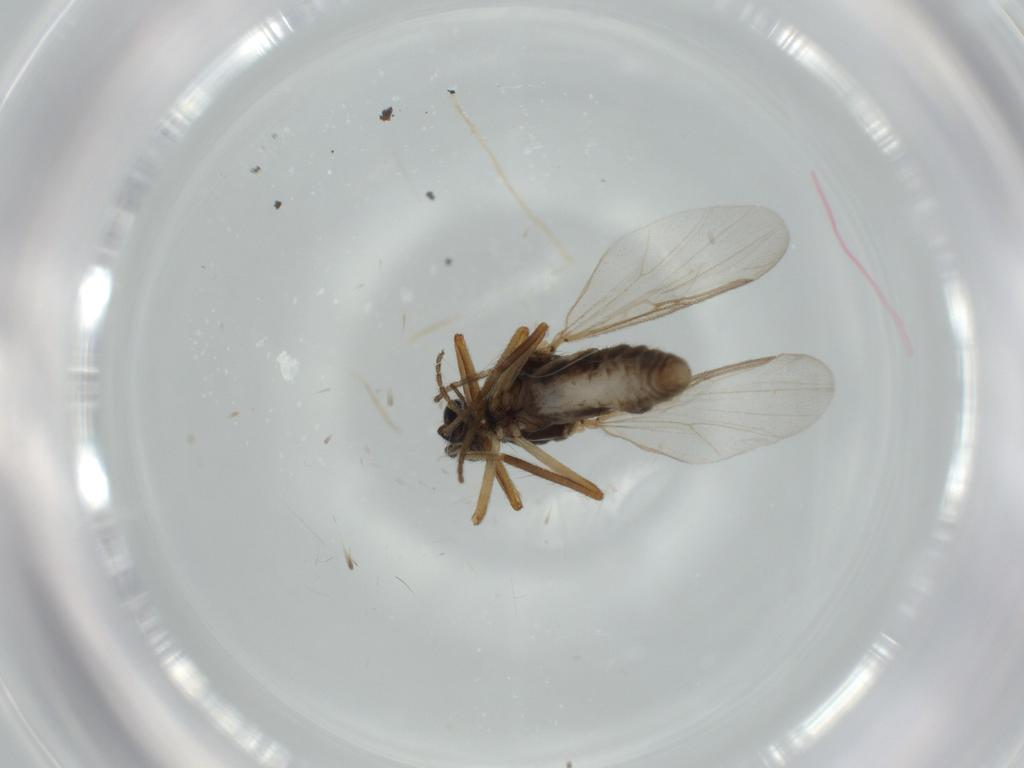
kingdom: Animalia
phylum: Arthropoda
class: Insecta
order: Diptera
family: Ceratopogonidae
